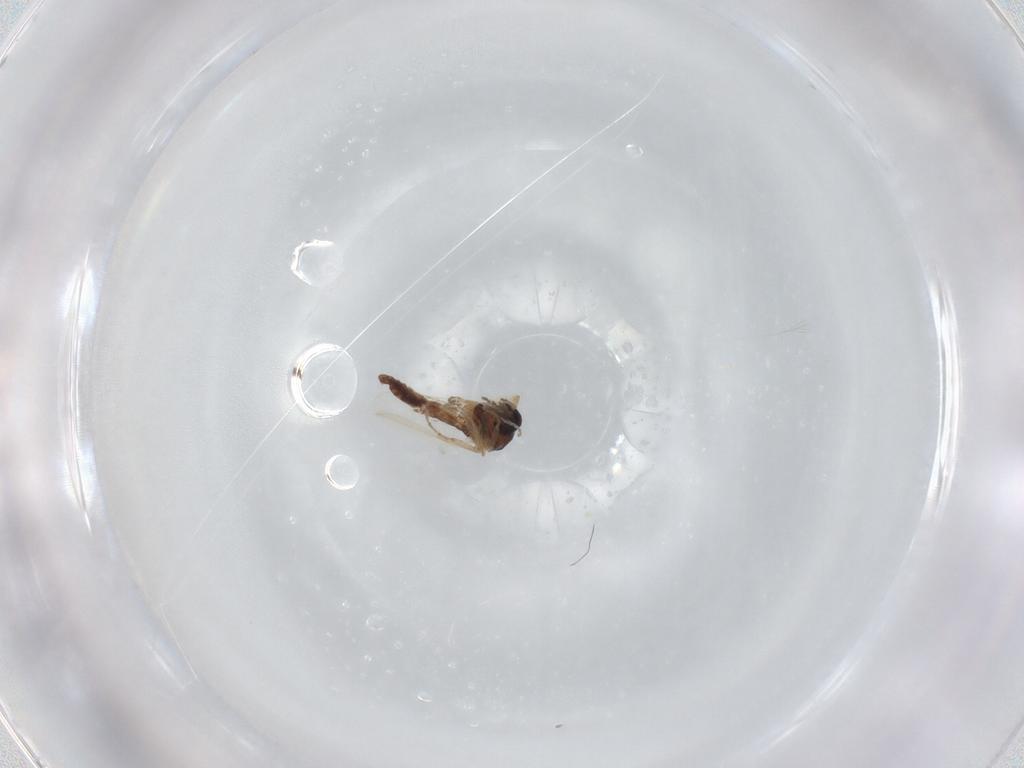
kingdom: Animalia
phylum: Arthropoda
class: Insecta
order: Diptera
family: Ceratopogonidae
